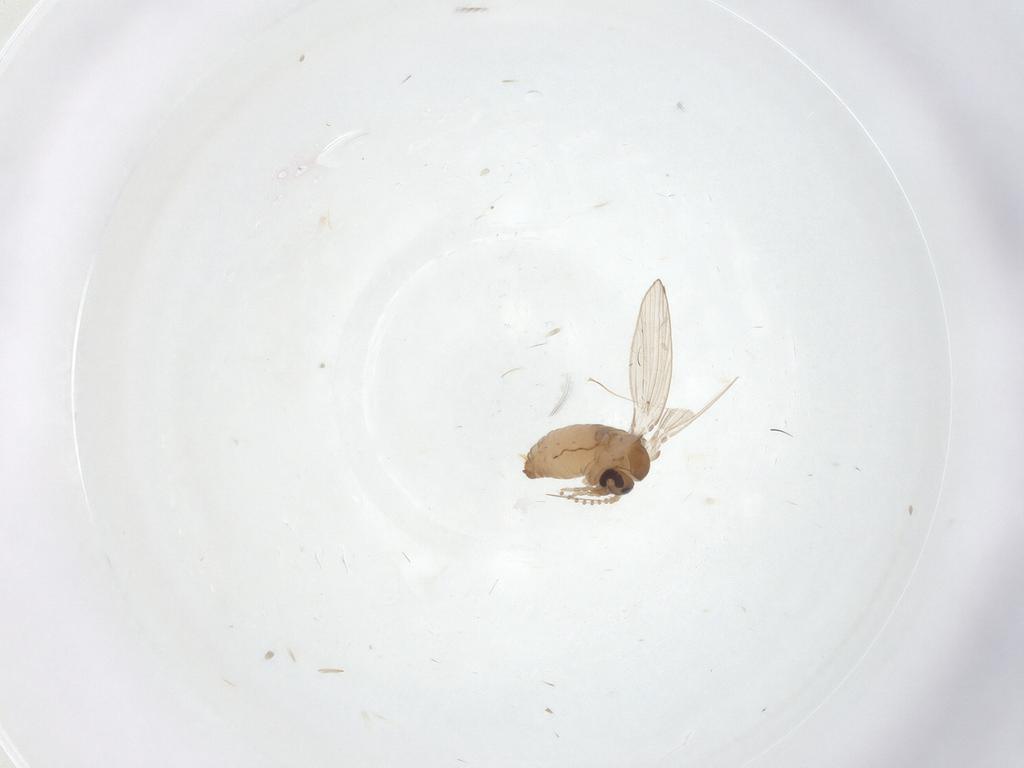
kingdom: Animalia
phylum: Arthropoda
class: Insecta
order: Diptera
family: Psychodidae
